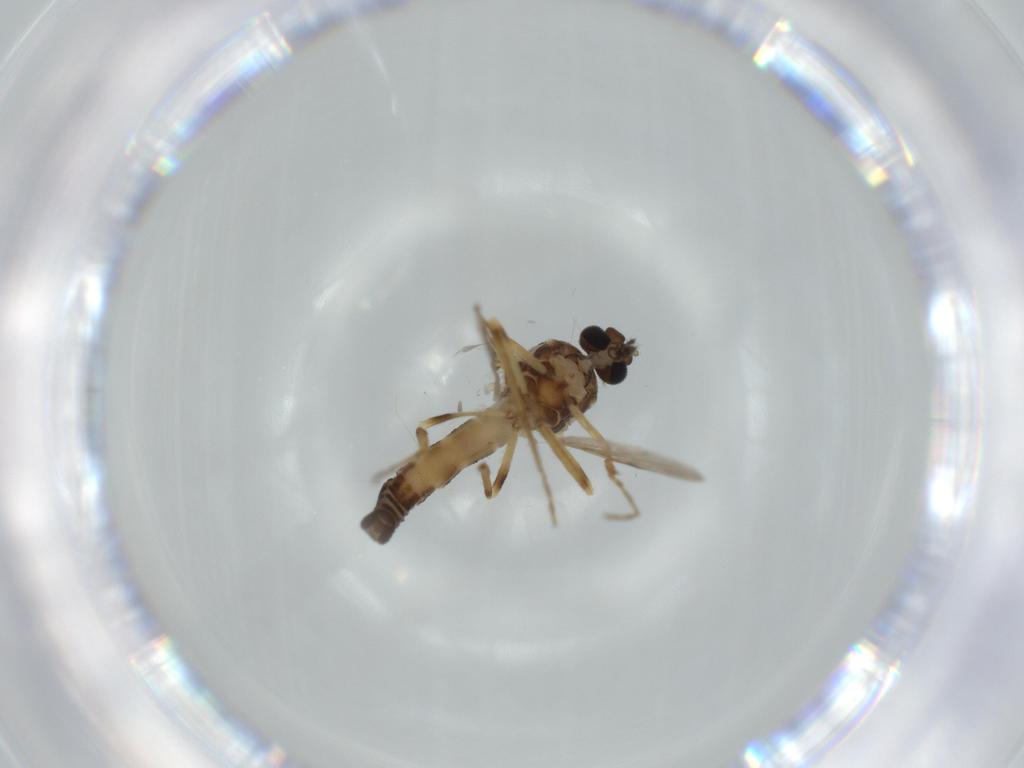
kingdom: Animalia
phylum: Arthropoda
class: Insecta
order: Diptera
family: Ceratopogonidae
